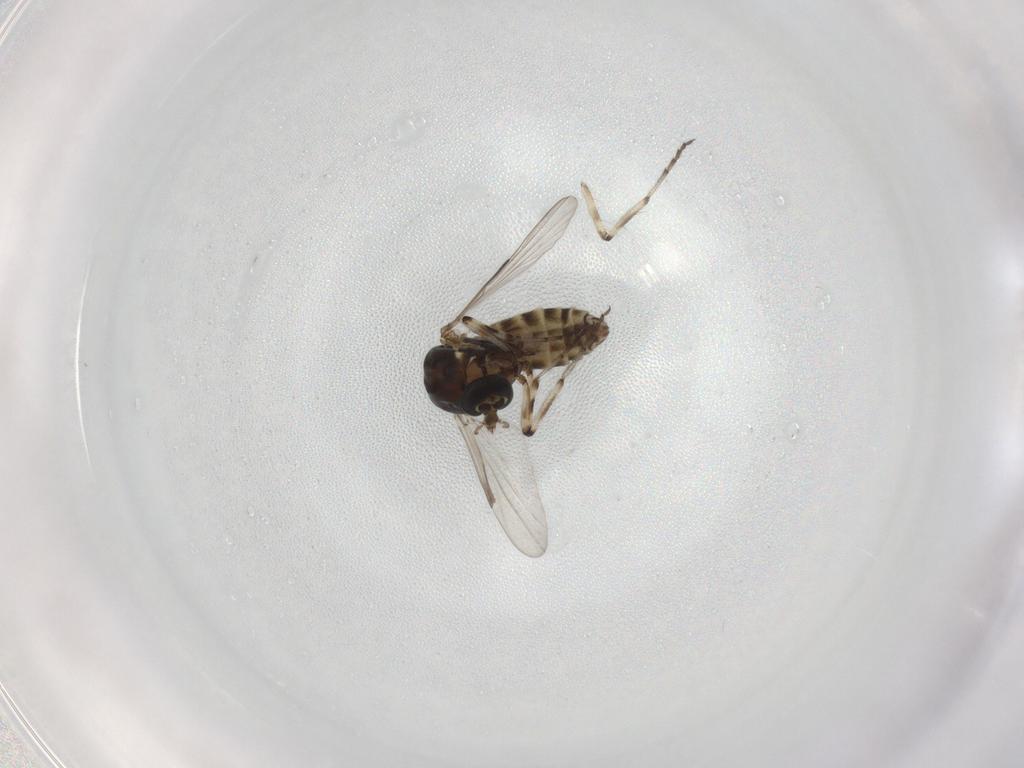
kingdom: Animalia
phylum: Arthropoda
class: Insecta
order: Diptera
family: Ceratopogonidae
